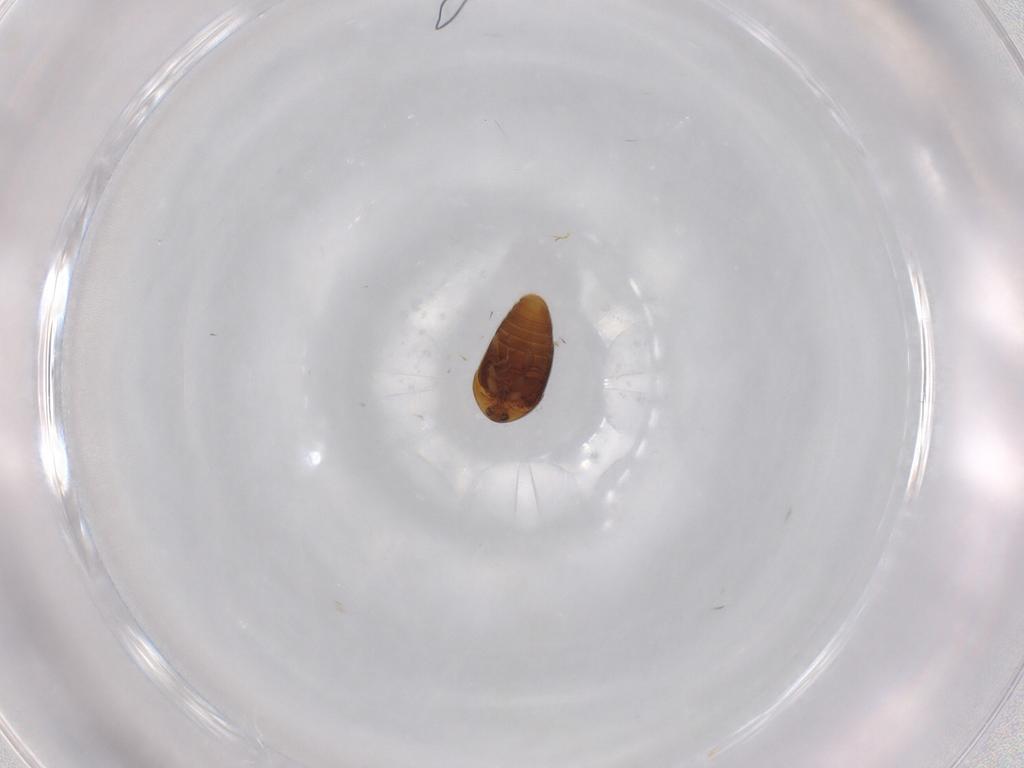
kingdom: Animalia
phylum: Arthropoda
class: Insecta
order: Coleoptera
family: Corylophidae
